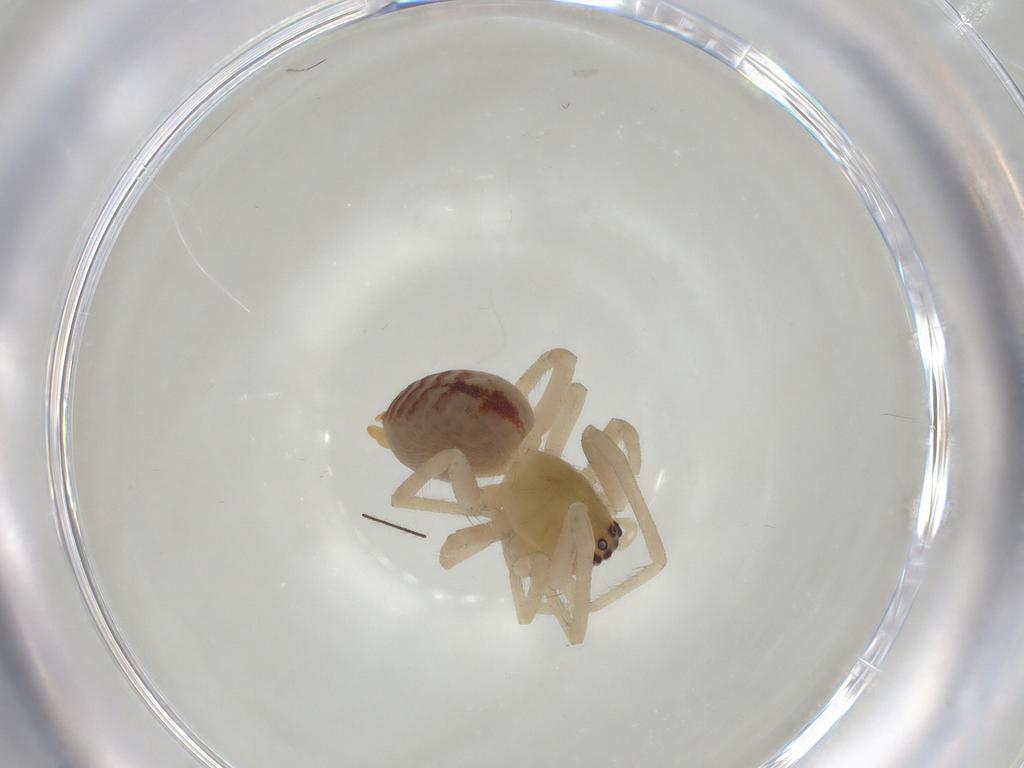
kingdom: Animalia
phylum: Arthropoda
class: Arachnida
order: Araneae
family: Cheiracanthiidae
